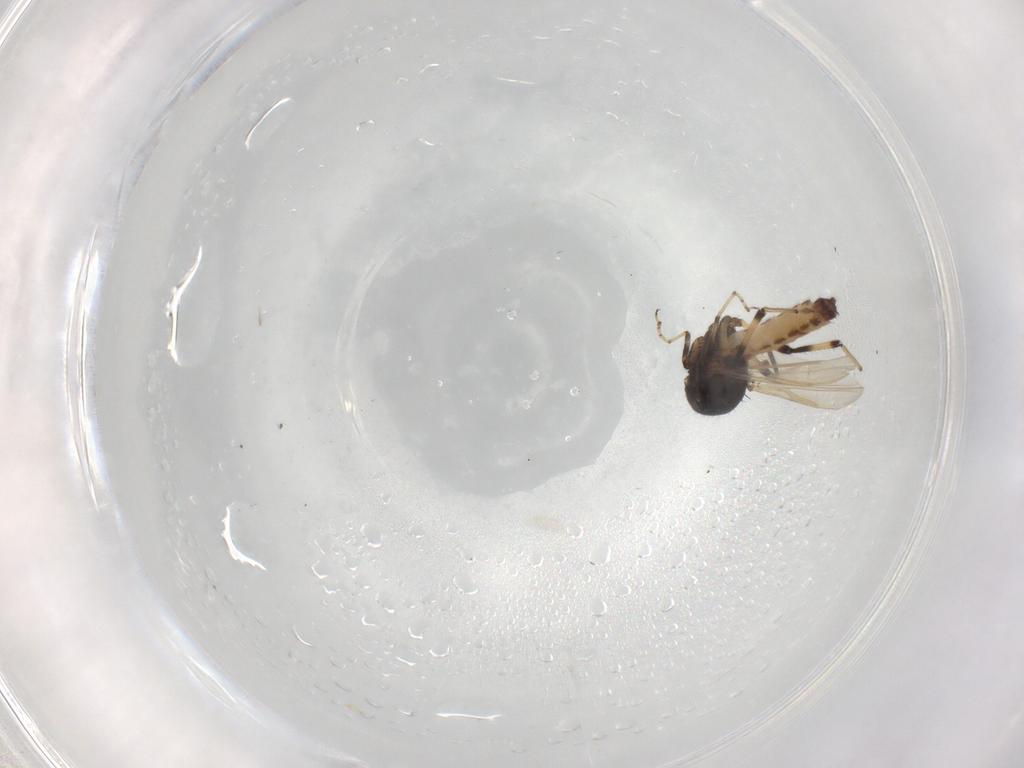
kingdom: Animalia
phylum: Arthropoda
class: Insecta
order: Diptera
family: Ceratopogonidae
